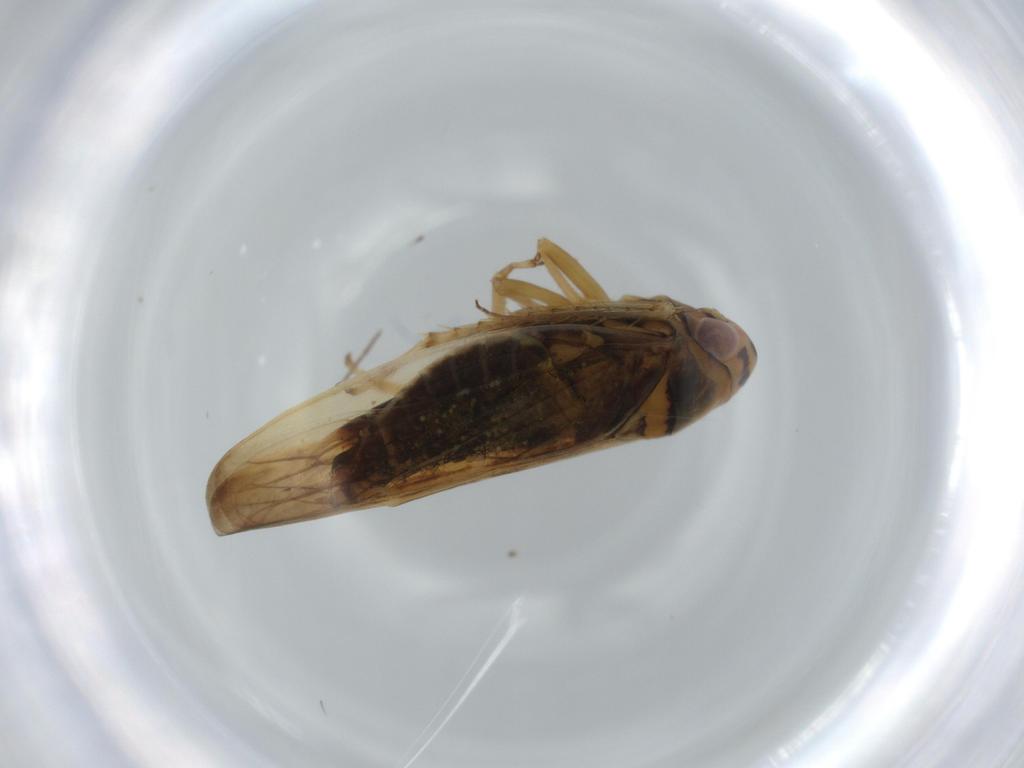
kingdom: Animalia
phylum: Arthropoda
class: Insecta
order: Hemiptera
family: Cicadellidae
